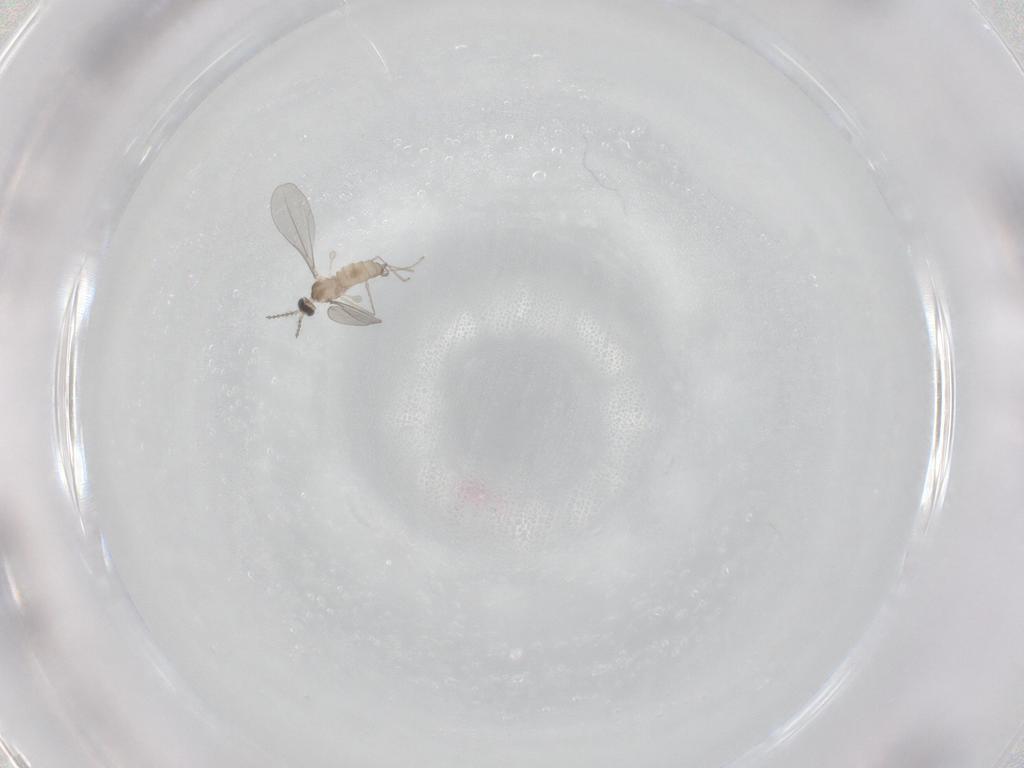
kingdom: Animalia
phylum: Arthropoda
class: Insecta
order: Diptera
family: Cecidomyiidae
